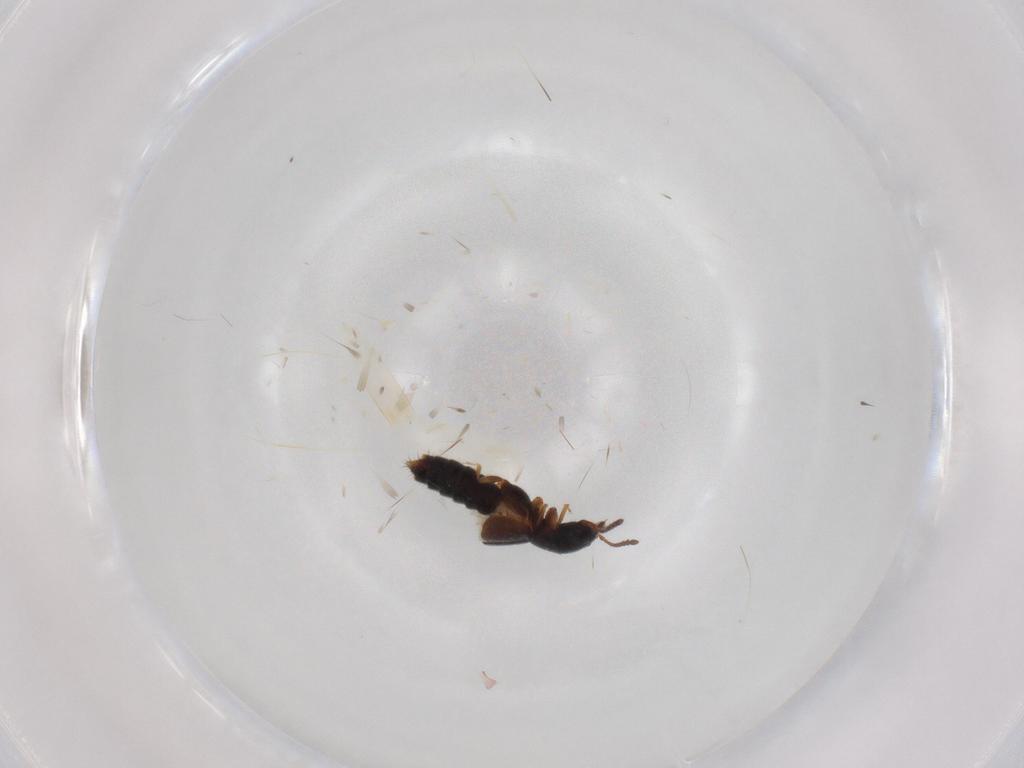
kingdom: Animalia
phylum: Arthropoda
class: Insecta
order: Coleoptera
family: Staphylinidae
